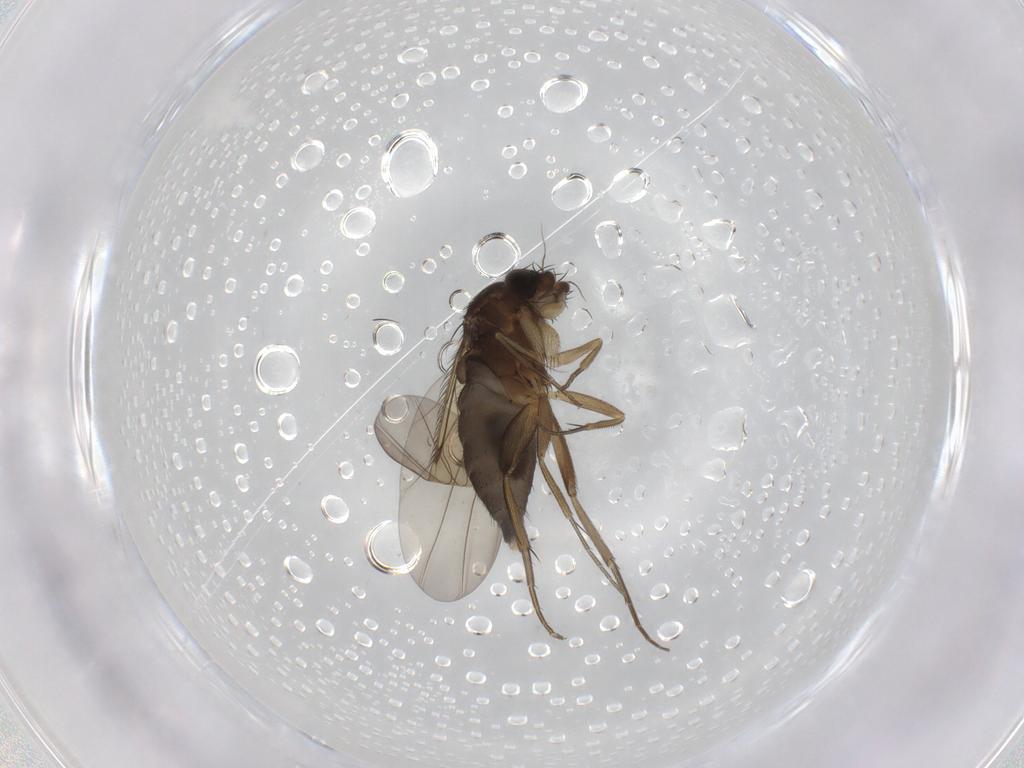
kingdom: Animalia
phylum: Arthropoda
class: Insecta
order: Diptera
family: Phoridae
